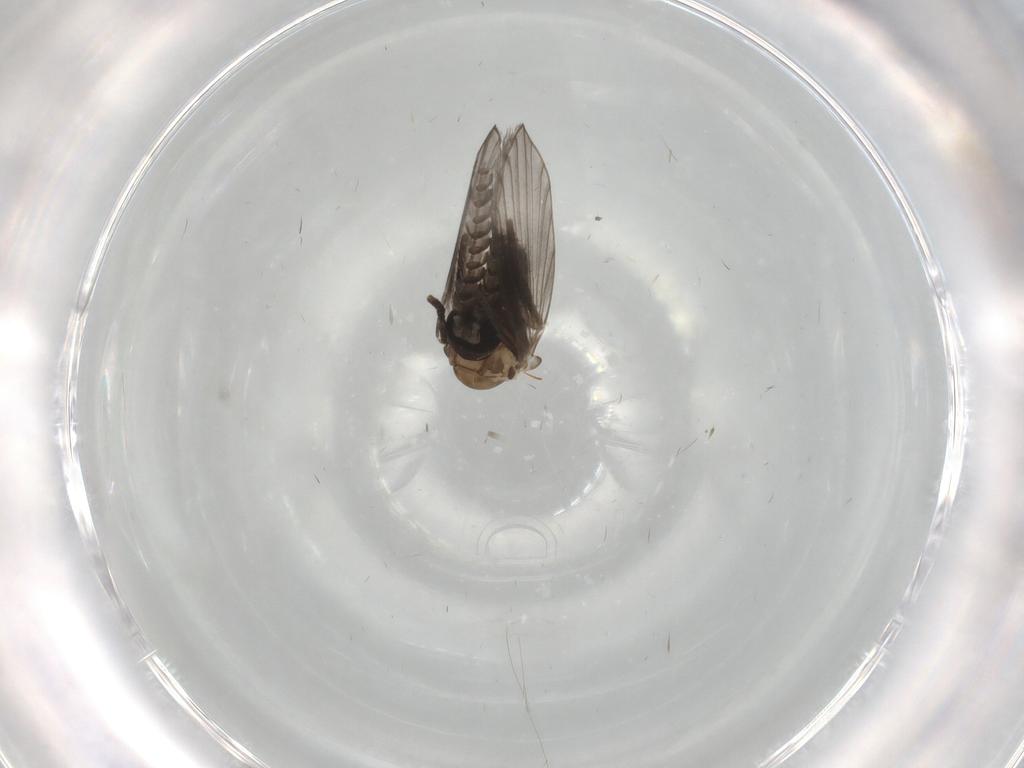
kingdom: Animalia
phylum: Arthropoda
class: Insecta
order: Diptera
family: Psychodidae
